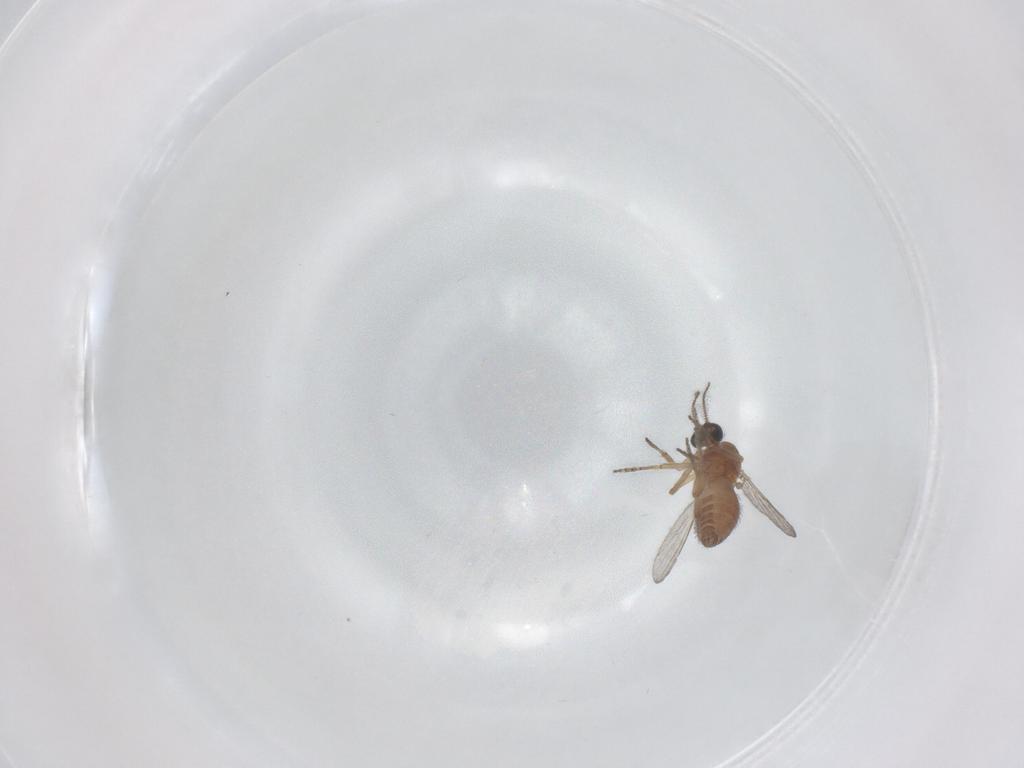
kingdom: Animalia
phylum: Arthropoda
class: Insecta
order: Diptera
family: Ceratopogonidae
